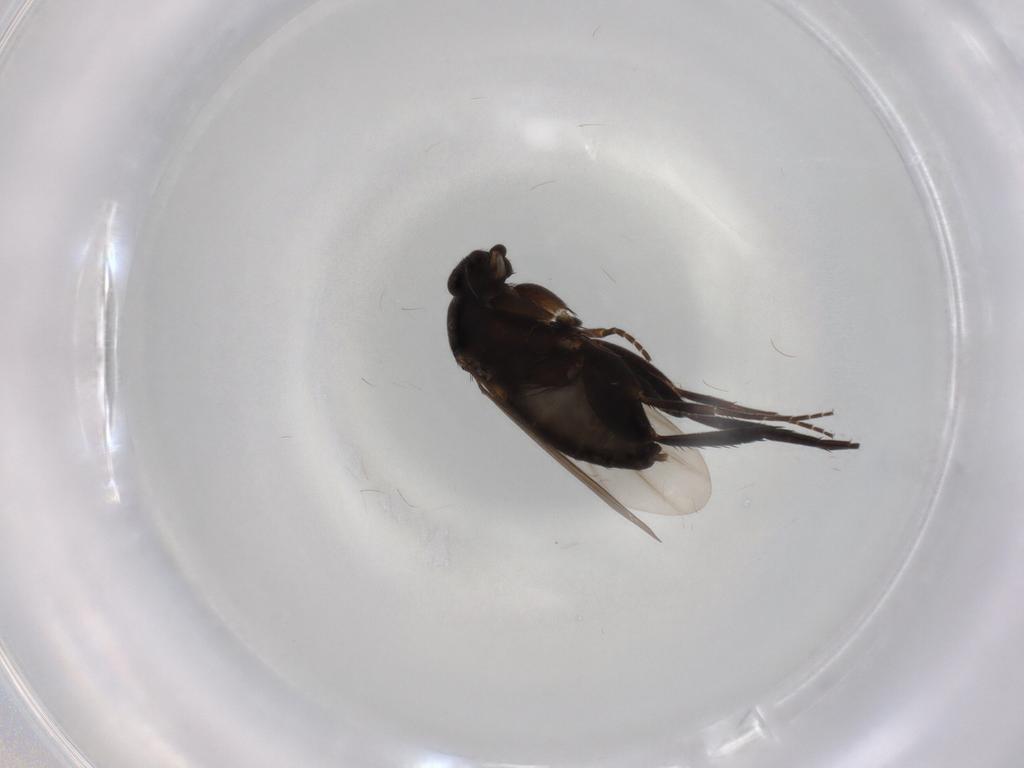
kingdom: Animalia
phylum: Arthropoda
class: Insecta
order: Diptera
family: Phoridae
